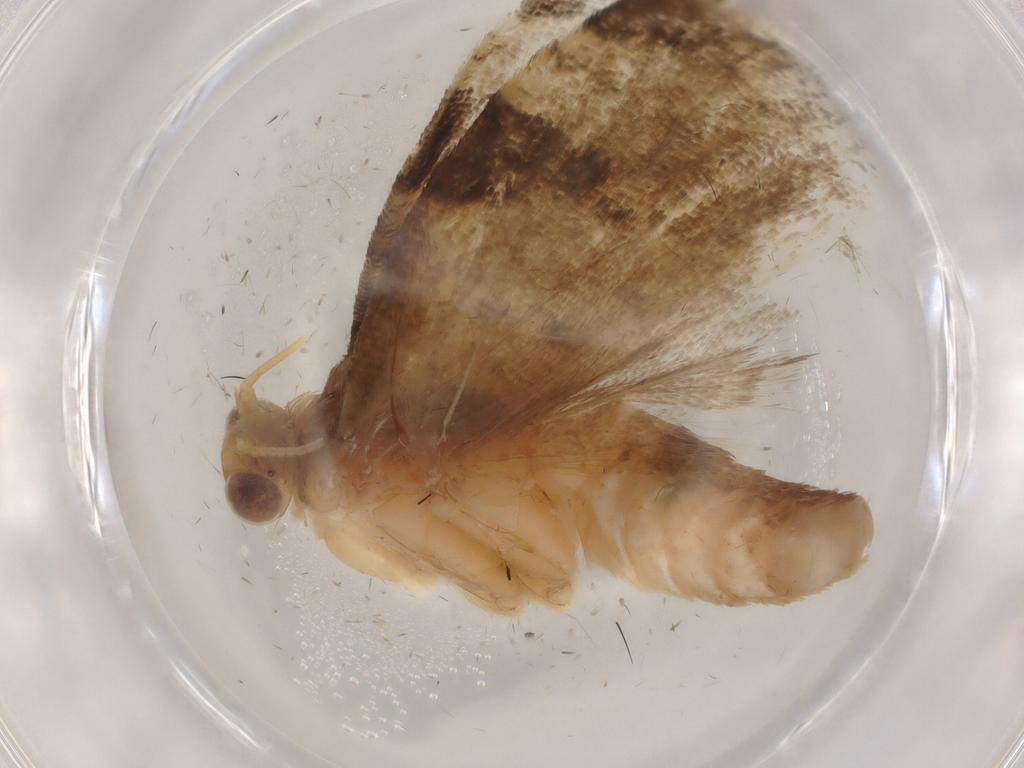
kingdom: Animalia
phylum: Arthropoda
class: Insecta
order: Lepidoptera
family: Tortricidae
